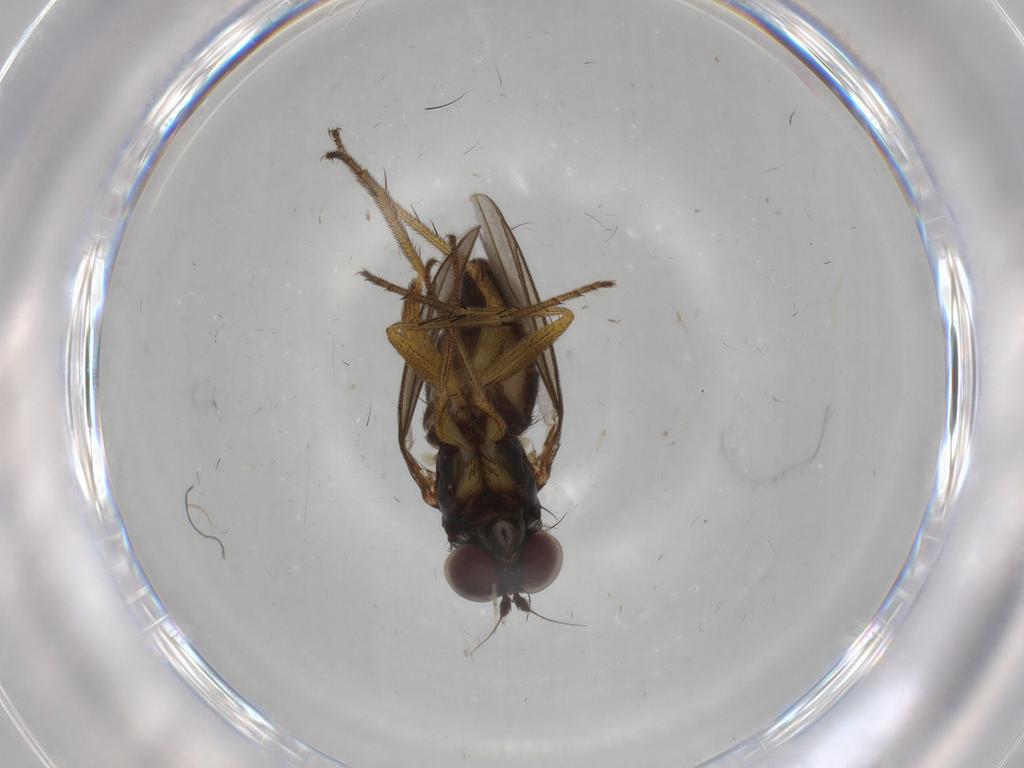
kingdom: Animalia
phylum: Arthropoda
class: Insecta
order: Diptera
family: Dolichopodidae
